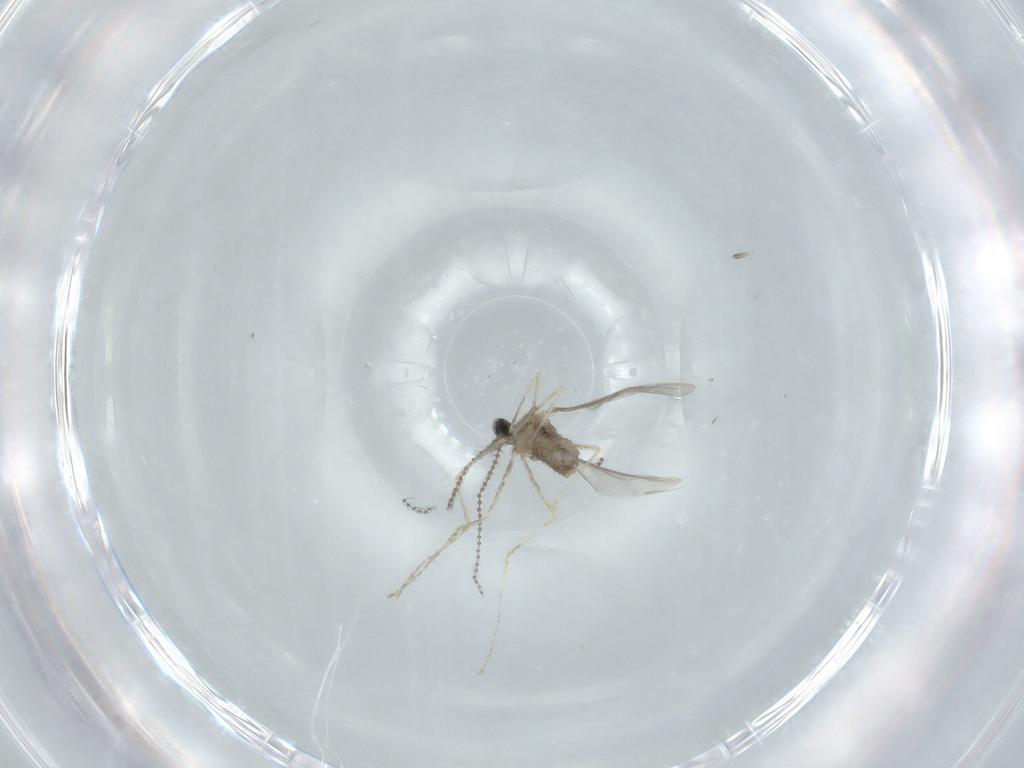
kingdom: Animalia
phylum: Arthropoda
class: Insecta
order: Diptera
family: Cecidomyiidae
